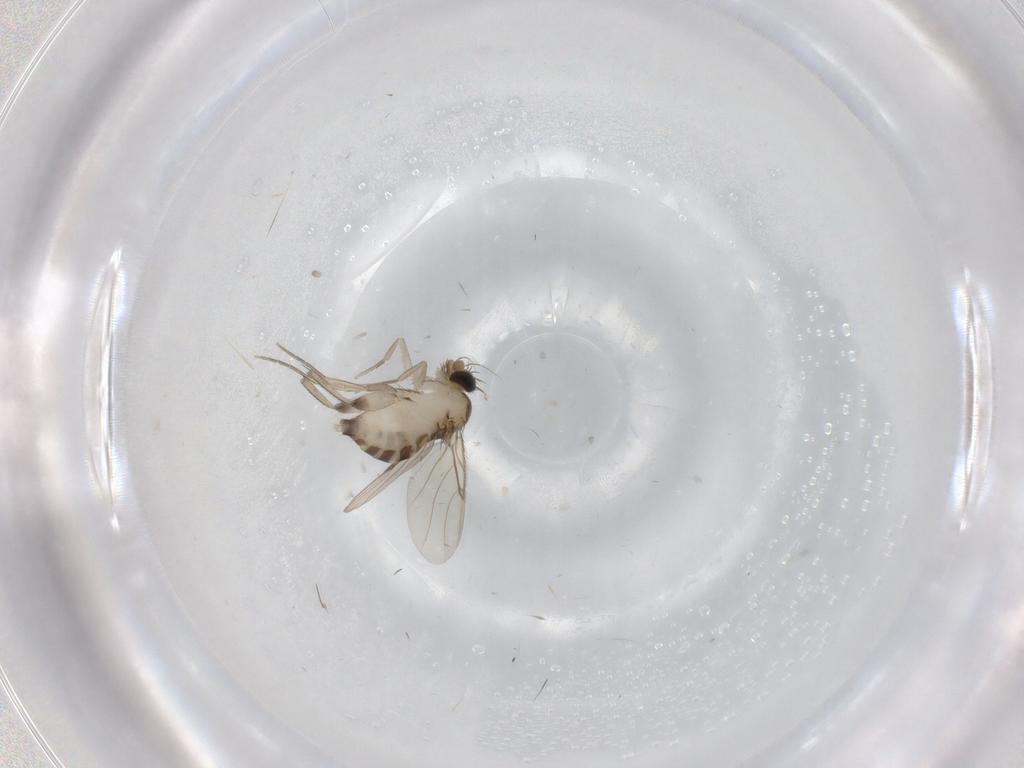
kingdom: Animalia
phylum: Arthropoda
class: Insecta
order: Diptera
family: Phoridae
